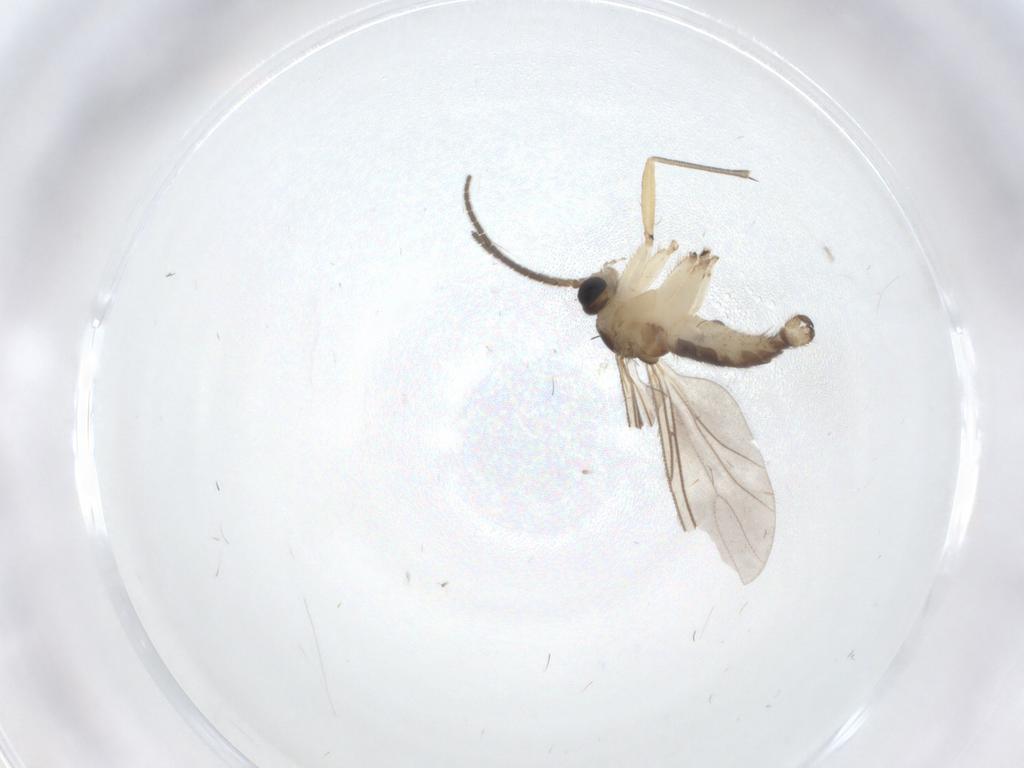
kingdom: Animalia
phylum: Arthropoda
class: Insecta
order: Diptera
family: Sciaridae
